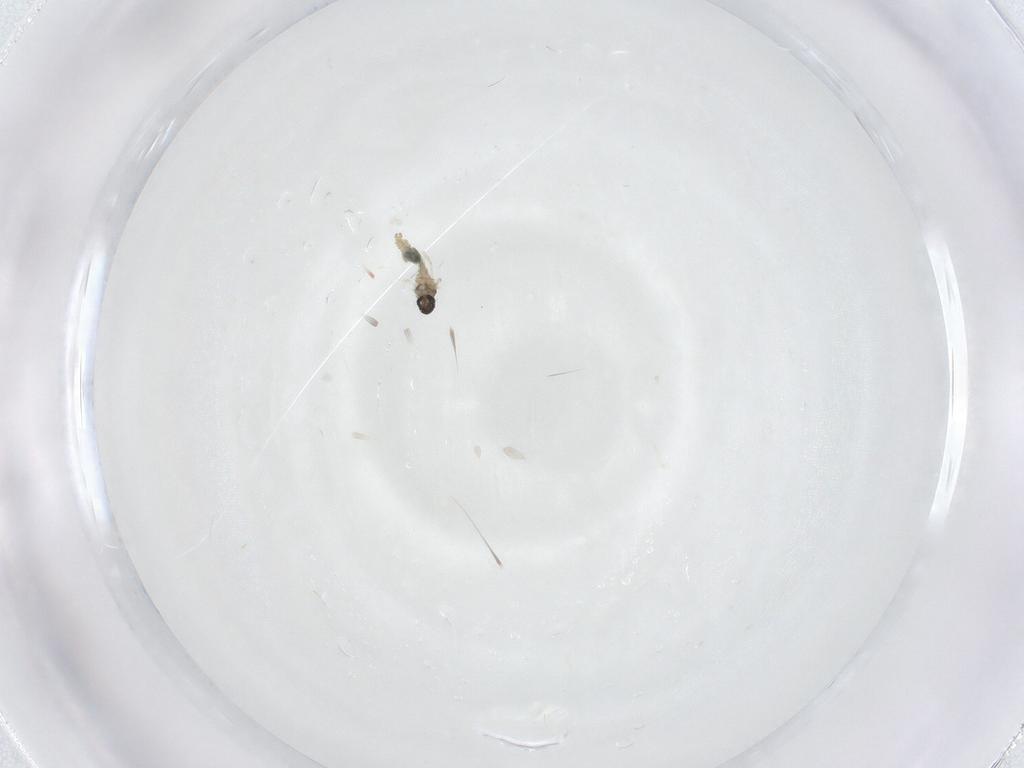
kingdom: Animalia
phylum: Arthropoda
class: Insecta
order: Diptera
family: Cecidomyiidae
